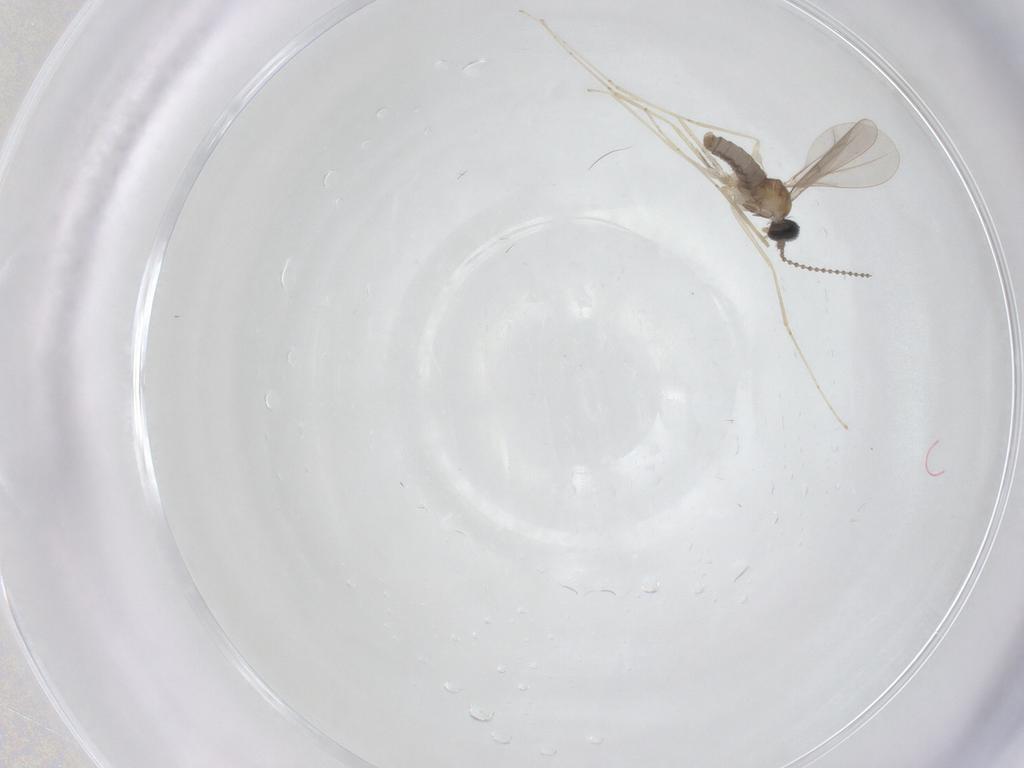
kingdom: Animalia
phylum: Arthropoda
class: Insecta
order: Diptera
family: Cecidomyiidae
